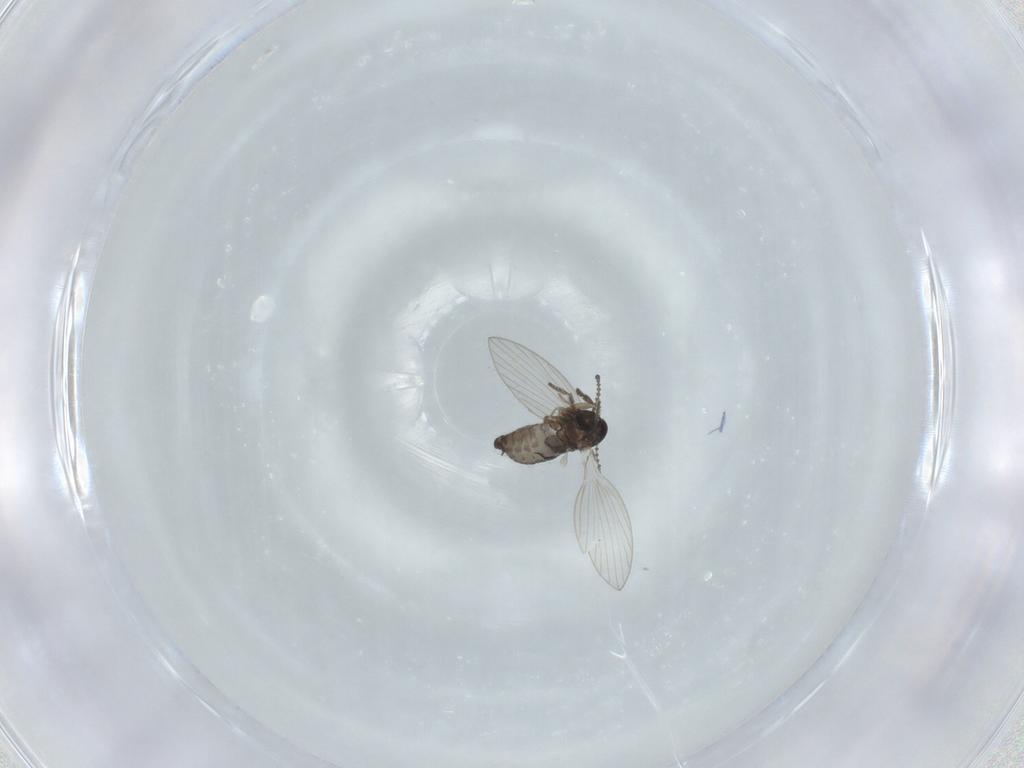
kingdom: Animalia
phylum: Arthropoda
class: Insecta
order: Diptera
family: Psychodidae
